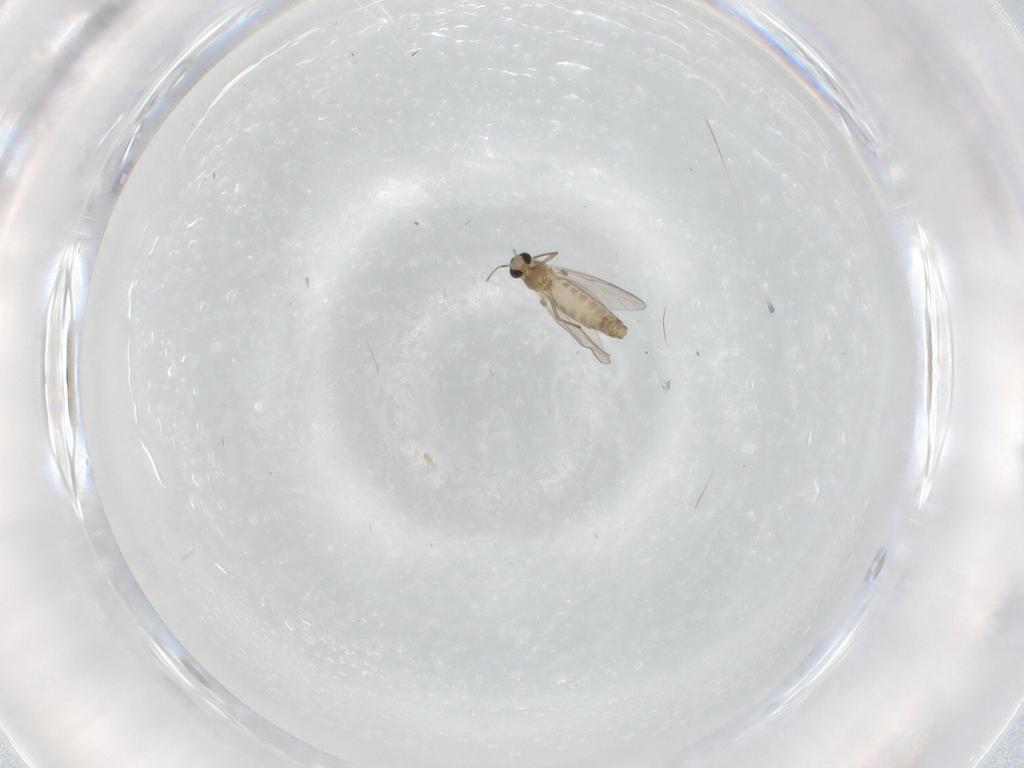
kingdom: Animalia
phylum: Arthropoda
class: Insecta
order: Diptera
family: Chironomidae
